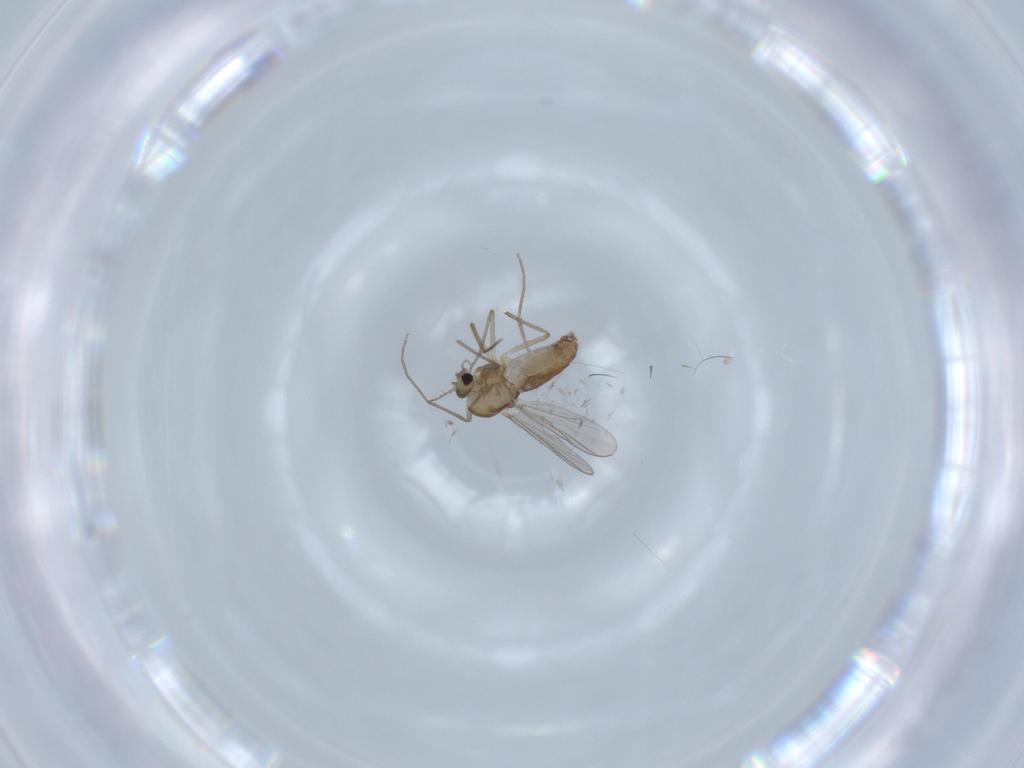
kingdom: Animalia
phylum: Arthropoda
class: Insecta
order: Diptera
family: Chironomidae
